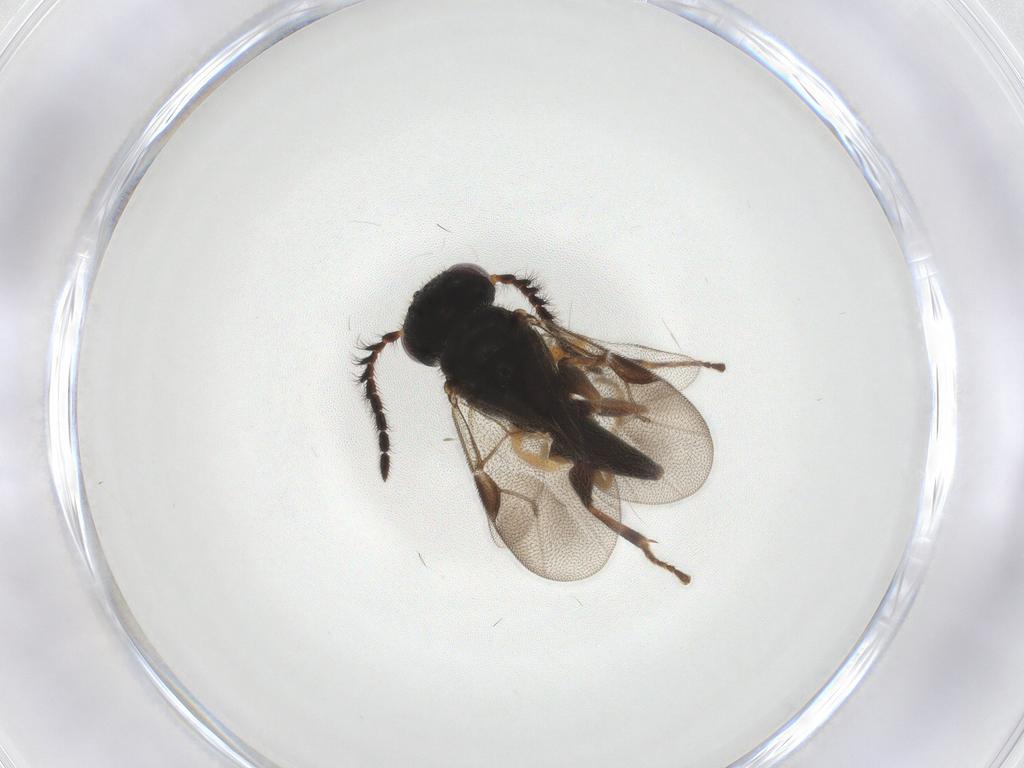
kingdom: Animalia
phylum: Arthropoda
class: Insecta
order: Hymenoptera
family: Dryinidae
